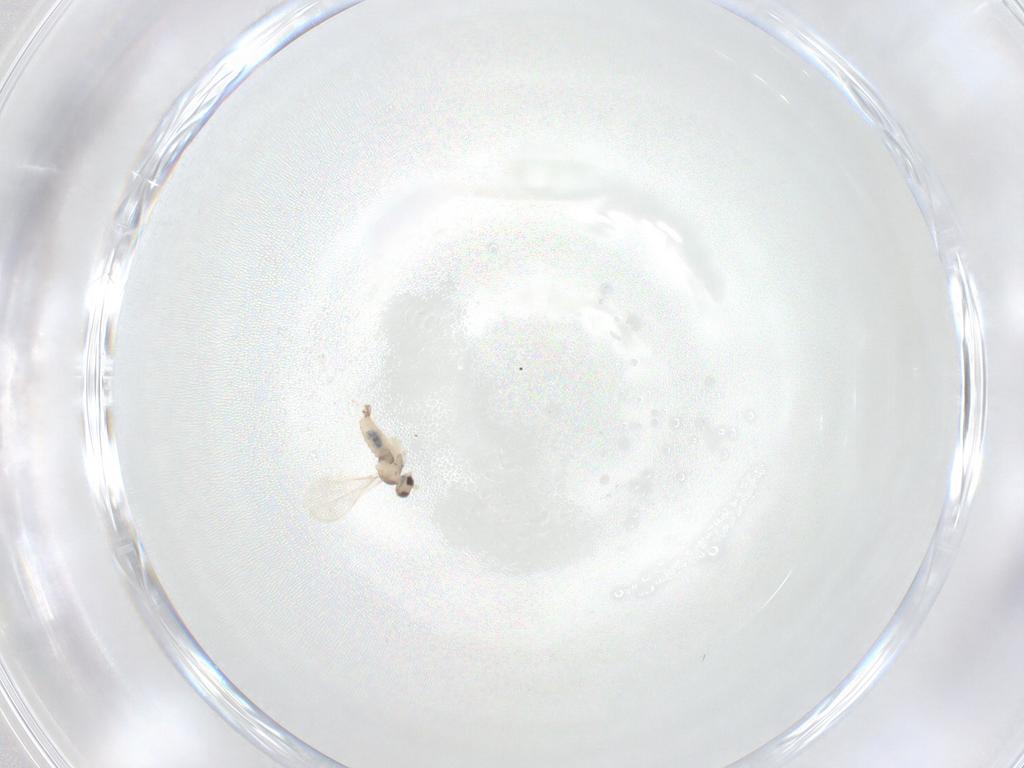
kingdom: Animalia
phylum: Arthropoda
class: Insecta
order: Diptera
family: Cecidomyiidae
